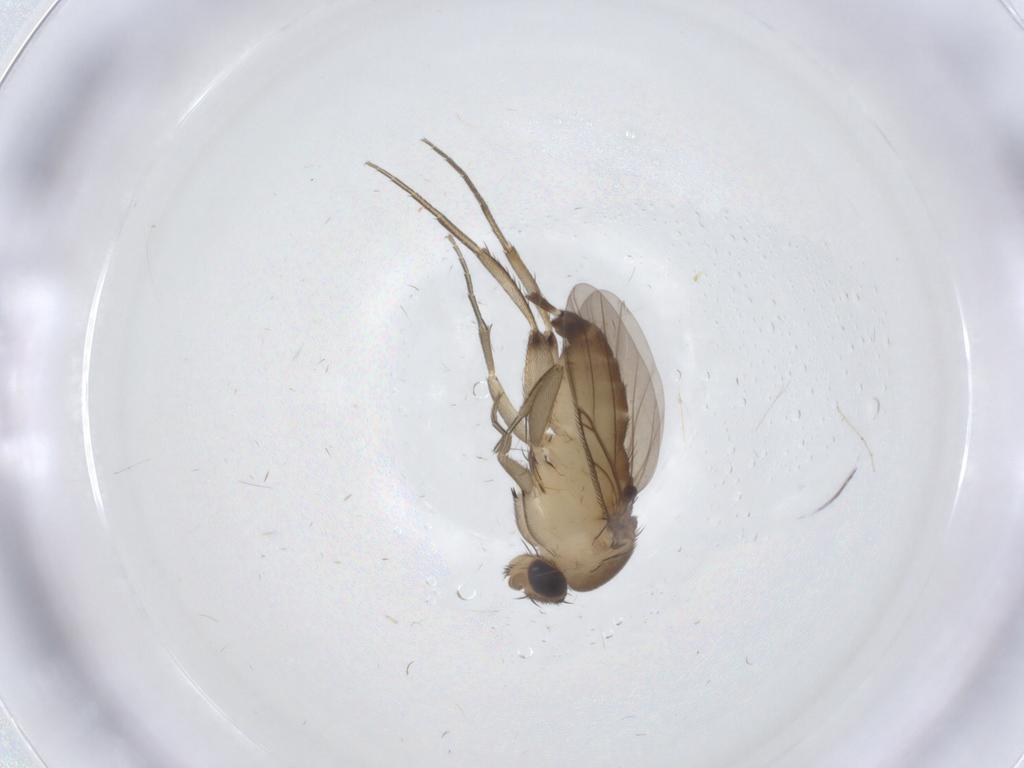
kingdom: Animalia
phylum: Arthropoda
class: Insecta
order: Diptera
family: Phoridae
